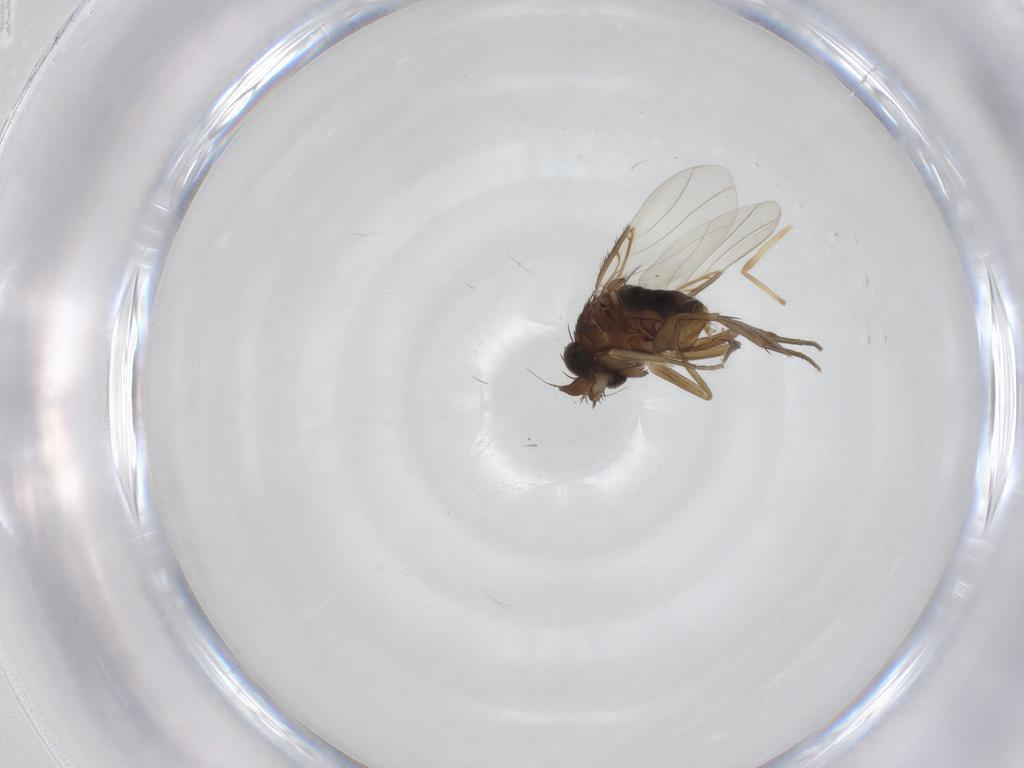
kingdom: Animalia
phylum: Arthropoda
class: Insecta
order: Diptera
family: Phoridae
